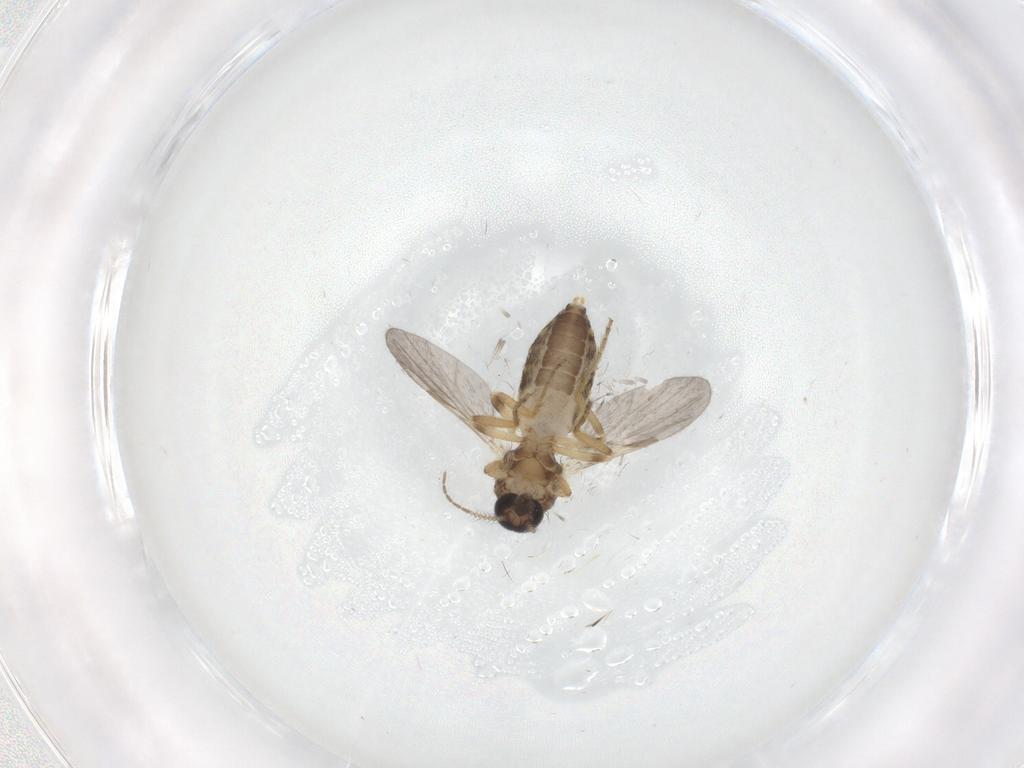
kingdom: Animalia
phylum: Arthropoda
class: Insecta
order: Diptera
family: Ceratopogonidae
